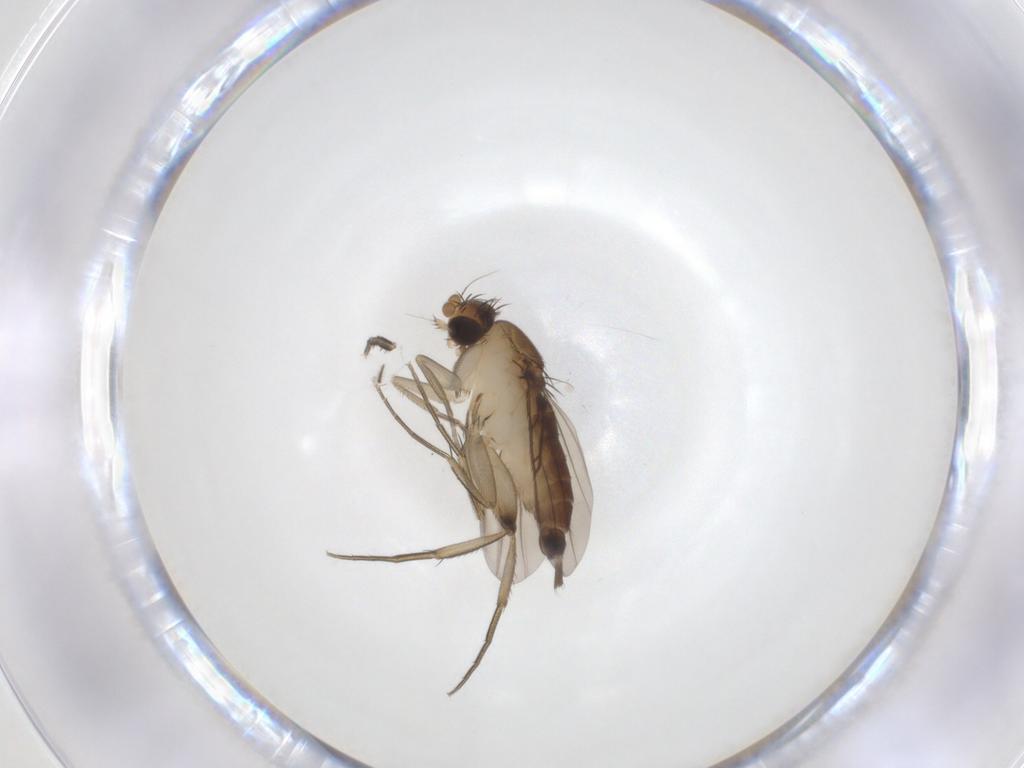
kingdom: Animalia
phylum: Arthropoda
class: Insecta
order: Diptera
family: Phoridae
